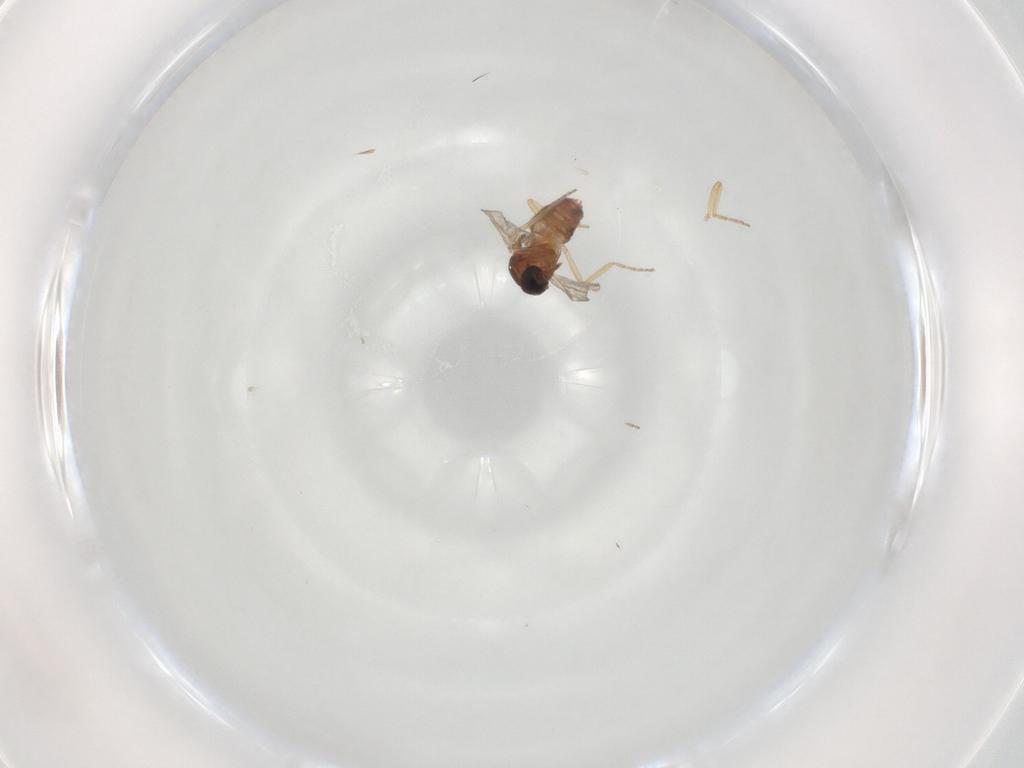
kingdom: Animalia
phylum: Arthropoda
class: Insecta
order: Diptera
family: Ceratopogonidae
